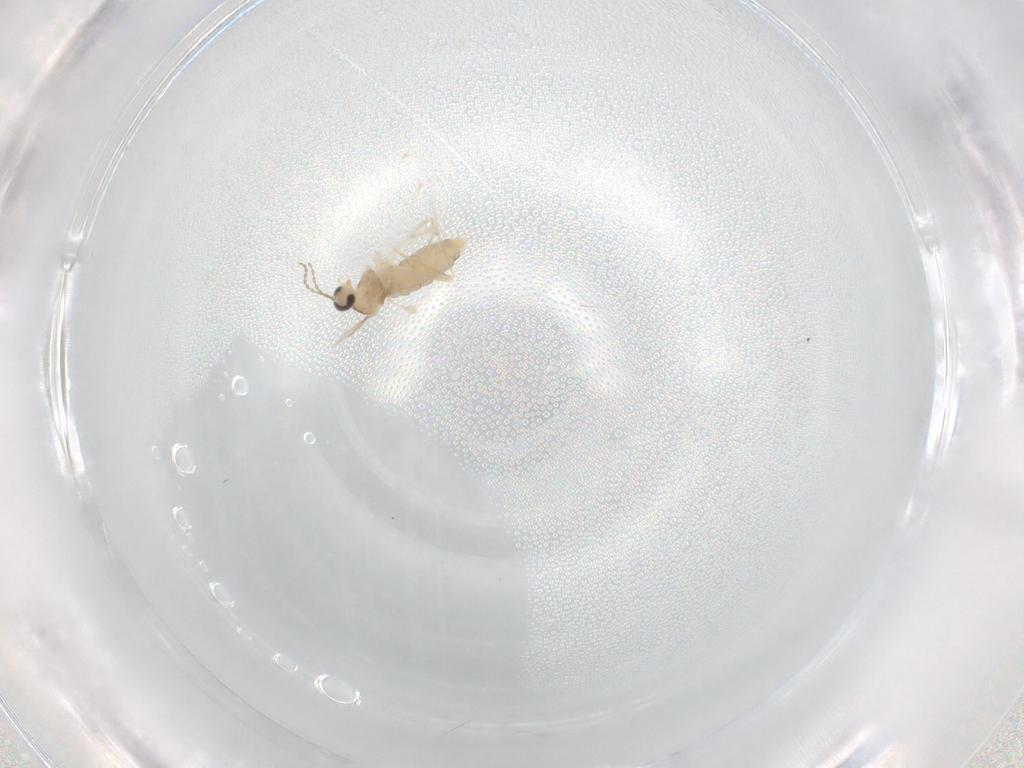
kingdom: Animalia
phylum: Arthropoda
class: Insecta
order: Diptera
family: Cecidomyiidae
